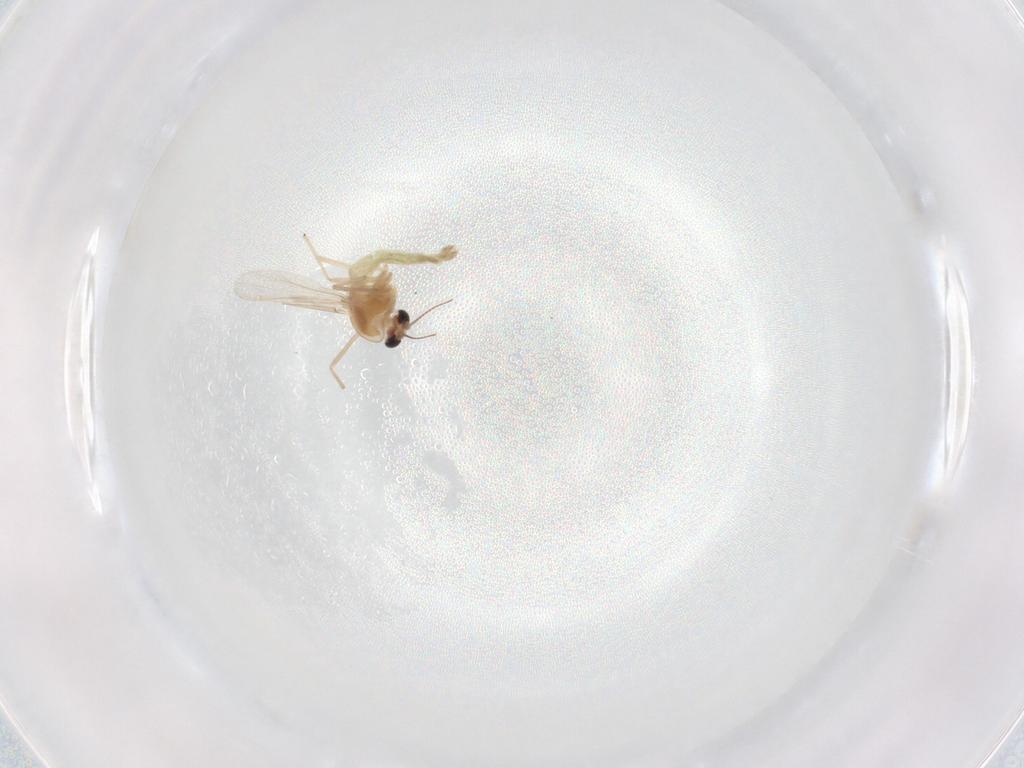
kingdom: Animalia
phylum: Arthropoda
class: Insecta
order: Diptera
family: Chironomidae
